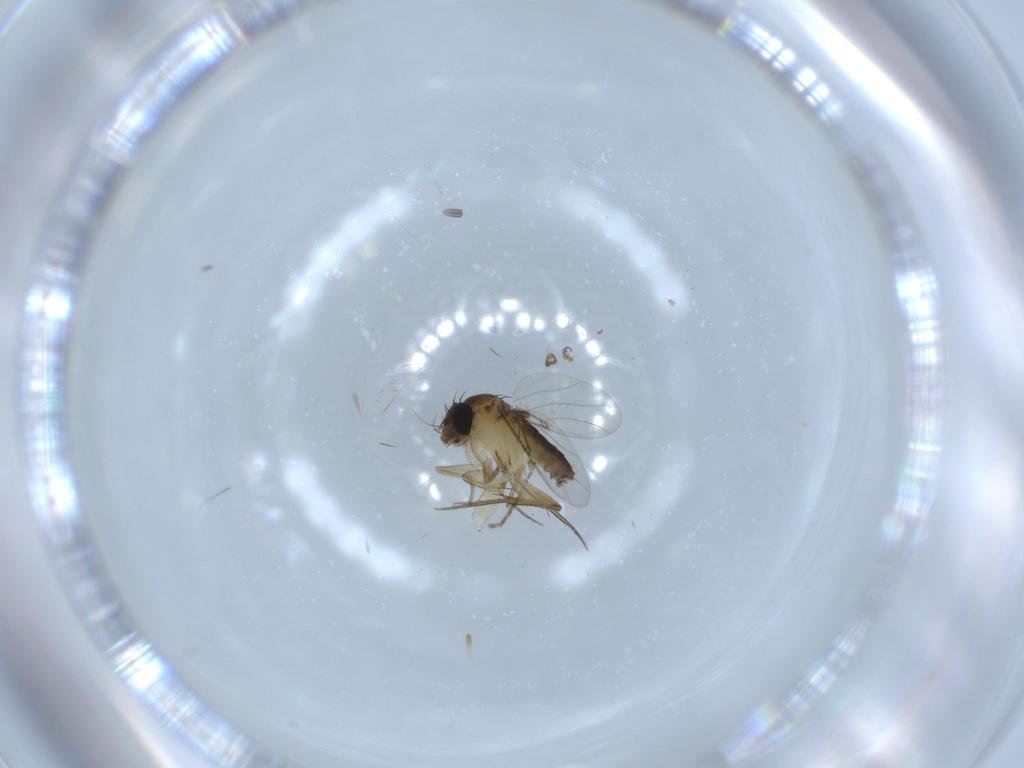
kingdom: Animalia
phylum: Arthropoda
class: Insecta
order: Diptera
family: Phoridae
